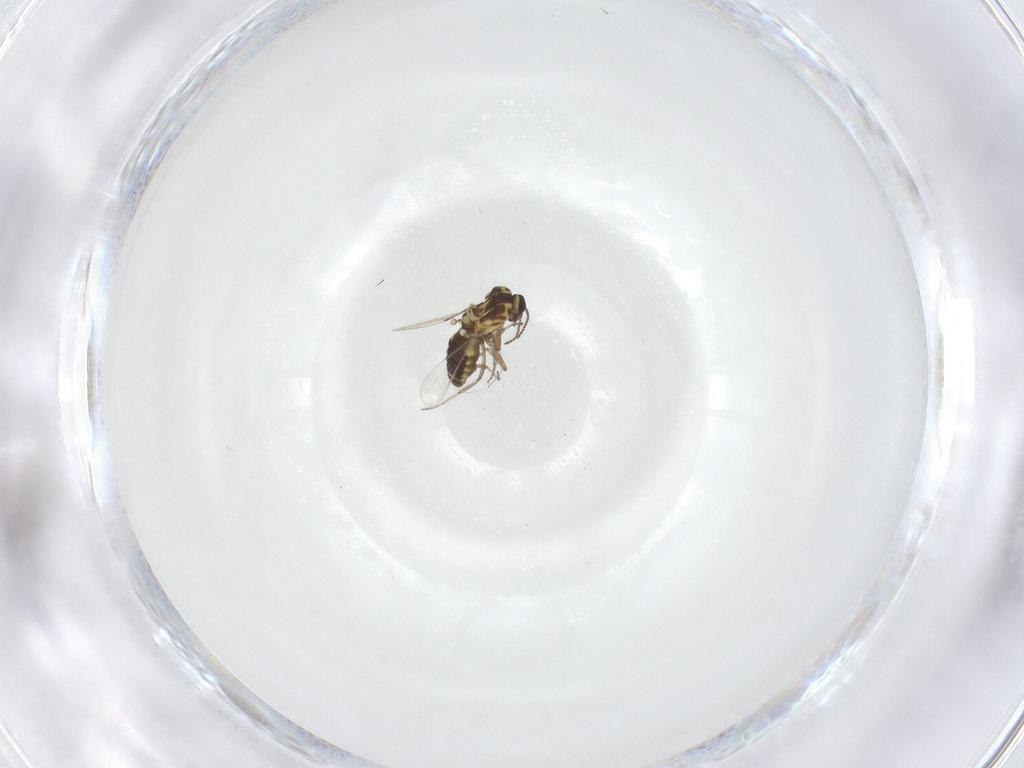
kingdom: Animalia
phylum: Arthropoda
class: Insecta
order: Diptera
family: Ceratopogonidae
